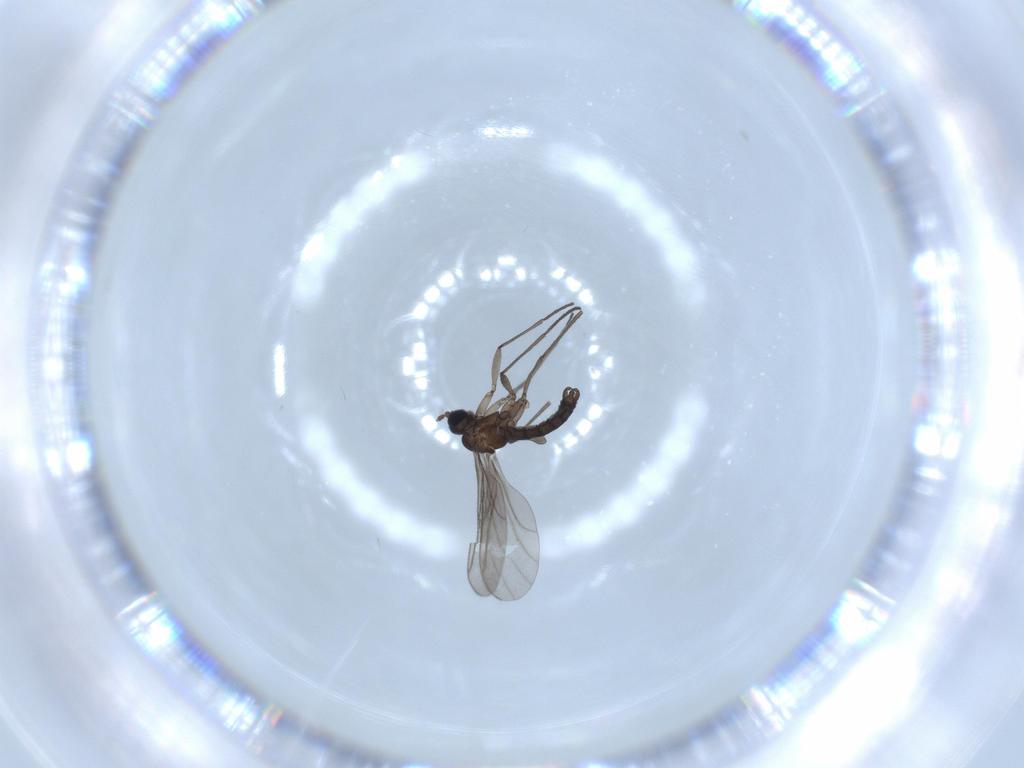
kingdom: Animalia
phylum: Arthropoda
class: Insecta
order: Diptera
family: Sciaridae
